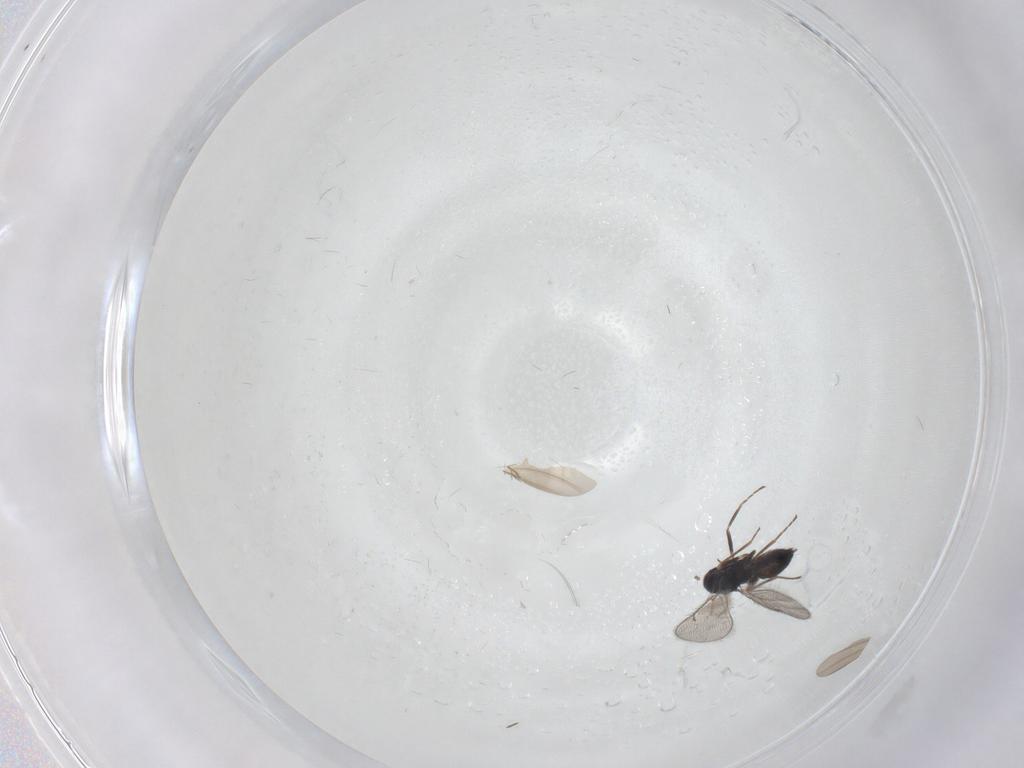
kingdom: Animalia
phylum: Arthropoda
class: Insecta
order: Hymenoptera
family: Eulophidae
